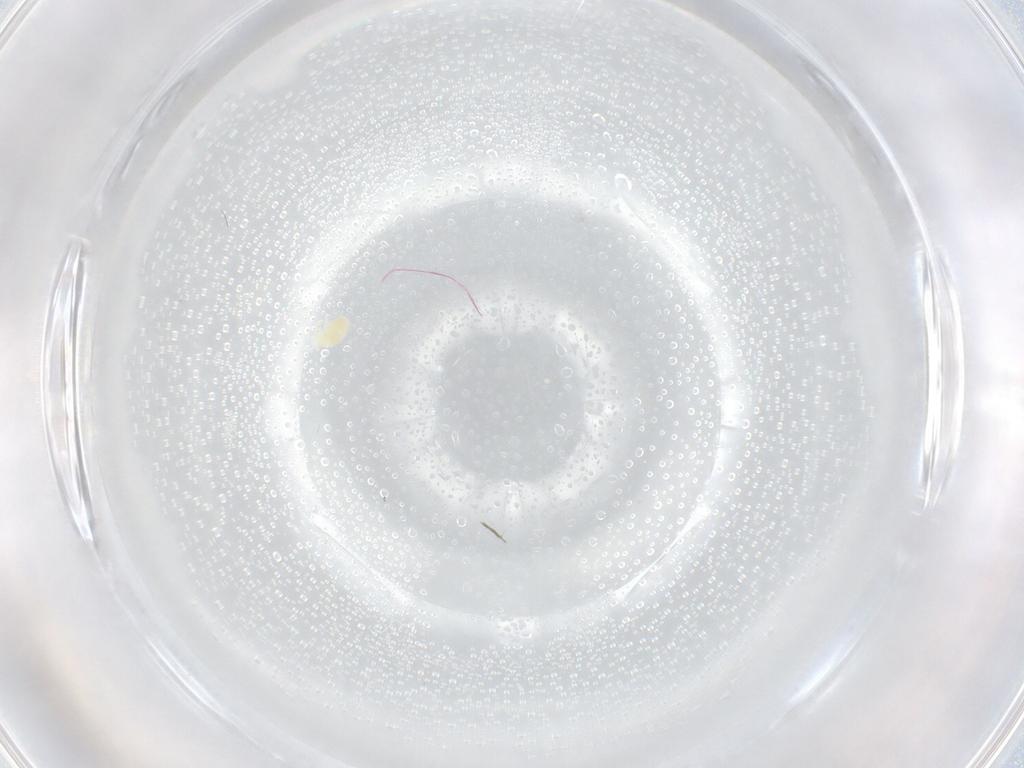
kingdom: Animalia
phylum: Arthropoda
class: Arachnida
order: Trombidiformes
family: Eupodidae
